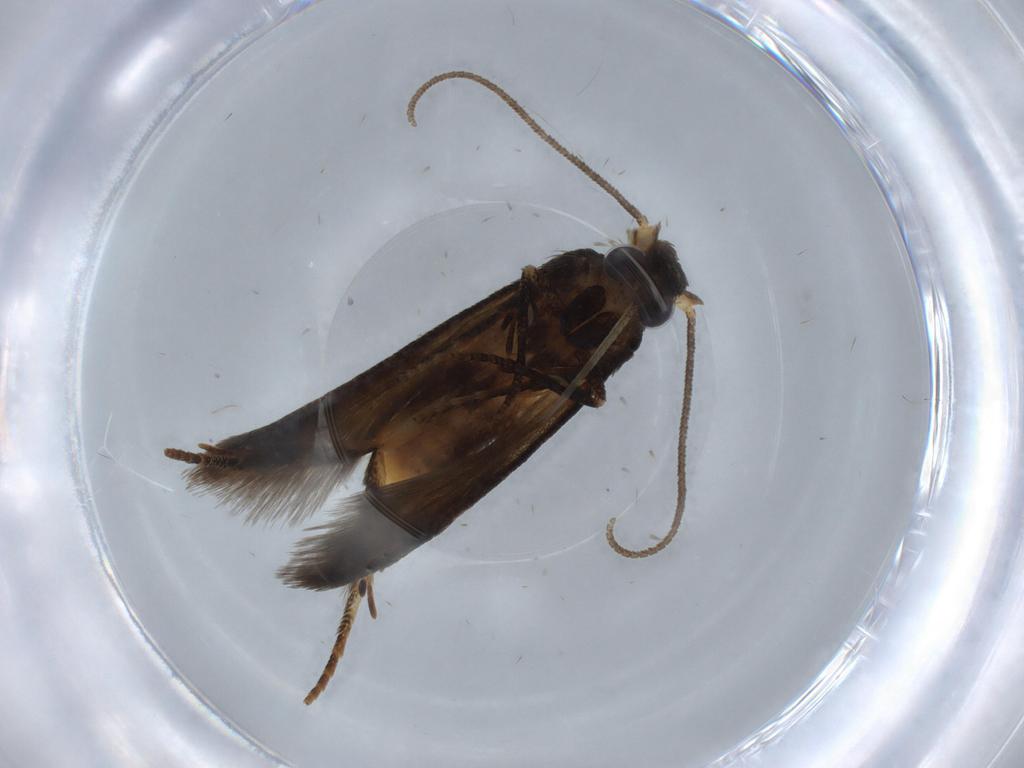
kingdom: Animalia
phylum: Arthropoda
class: Insecta
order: Lepidoptera
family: Blastobasidae
